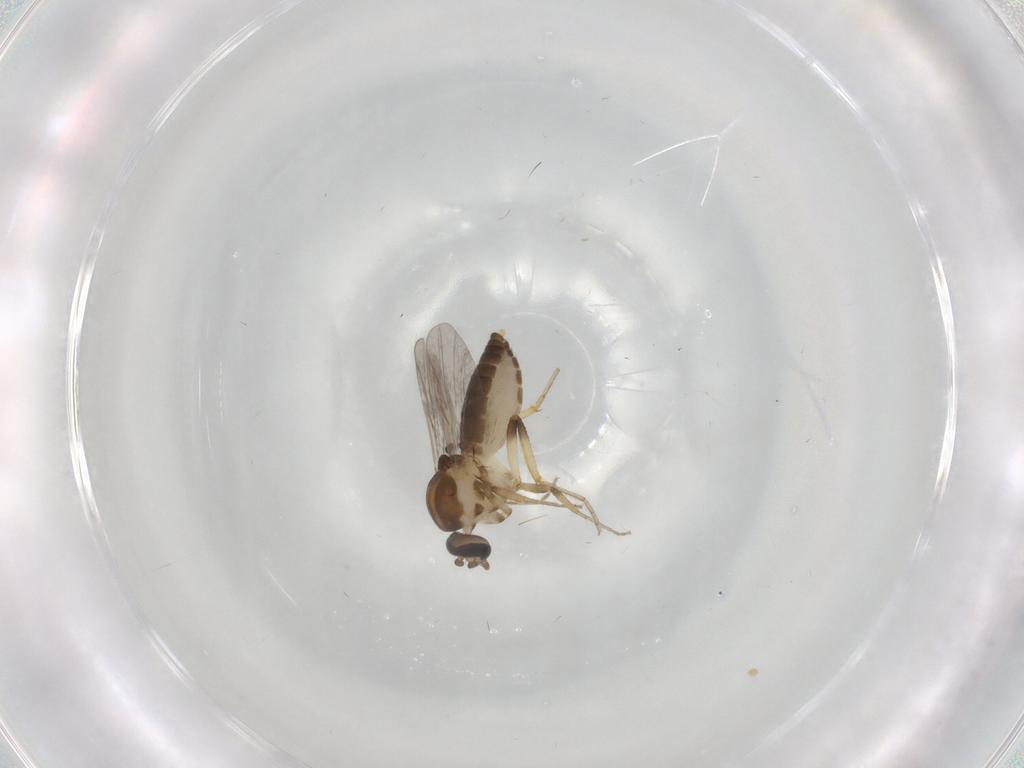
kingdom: Animalia
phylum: Arthropoda
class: Insecta
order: Diptera
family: Ceratopogonidae
